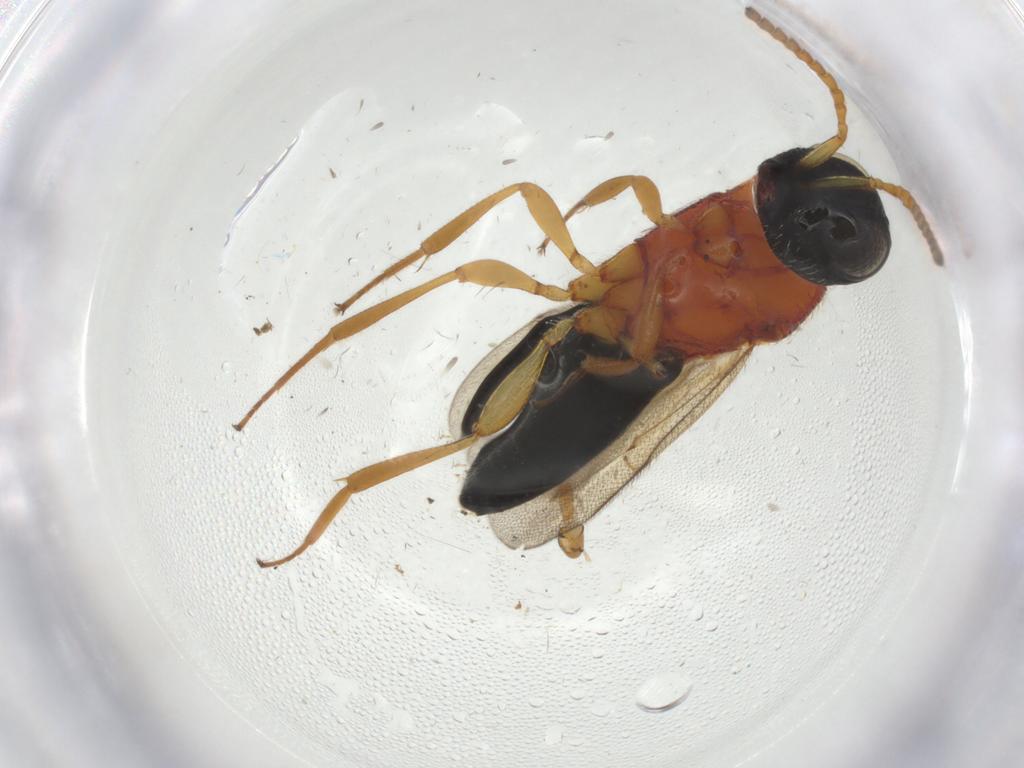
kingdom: Animalia
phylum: Arthropoda
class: Insecta
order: Hymenoptera
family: Scelionidae
